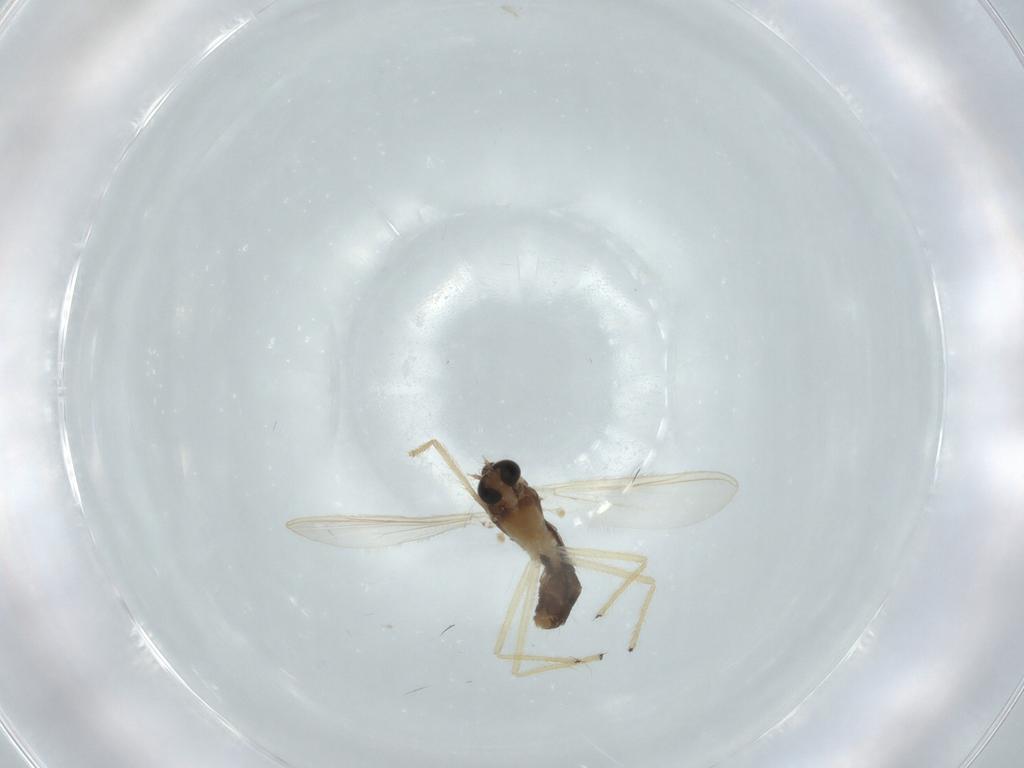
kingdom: Animalia
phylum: Arthropoda
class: Insecta
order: Diptera
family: Chironomidae
